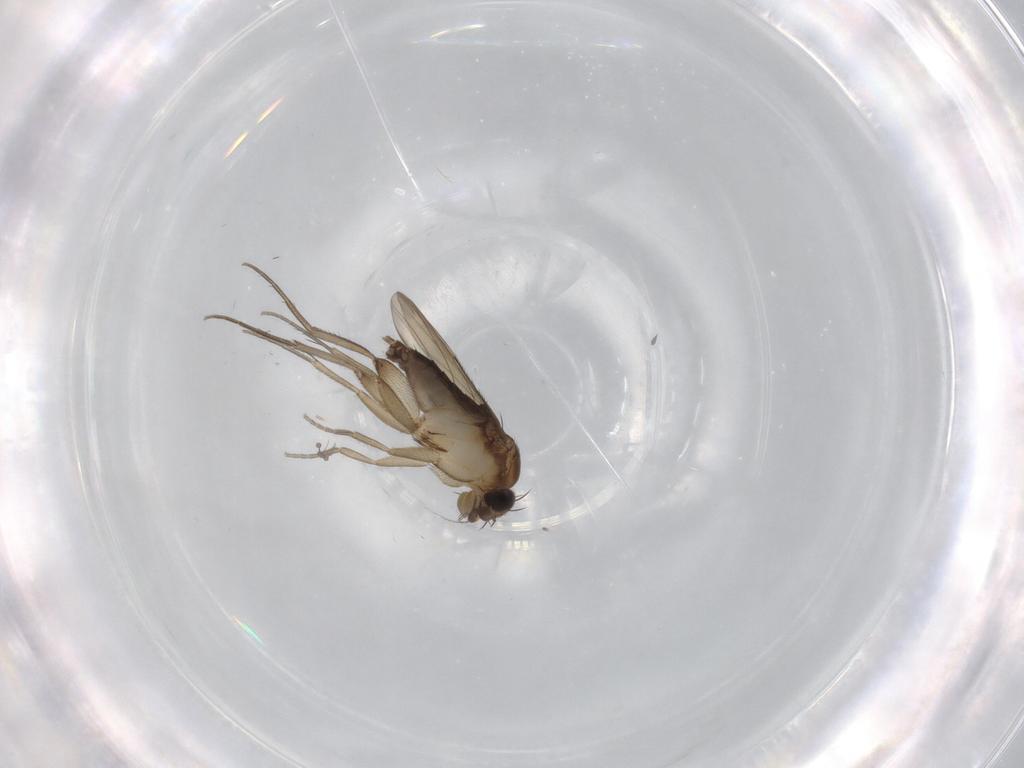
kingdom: Animalia
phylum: Arthropoda
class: Insecta
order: Diptera
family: Phoridae
